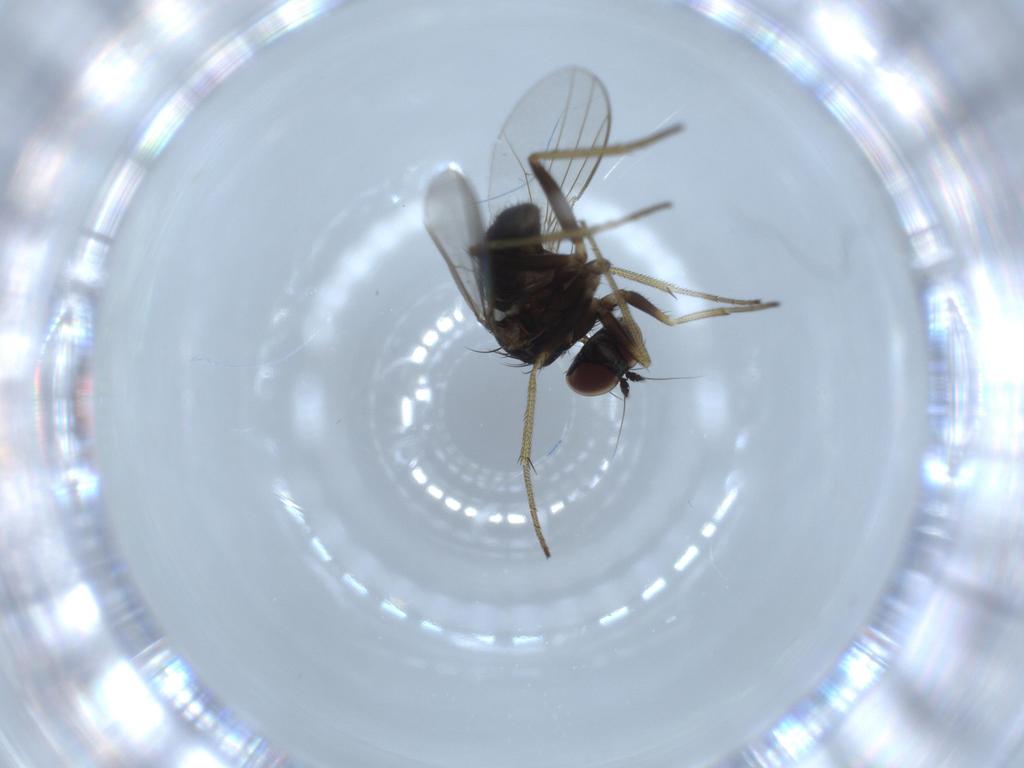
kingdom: Animalia
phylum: Arthropoda
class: Insecta
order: Diptera
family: Dolichopodidae
